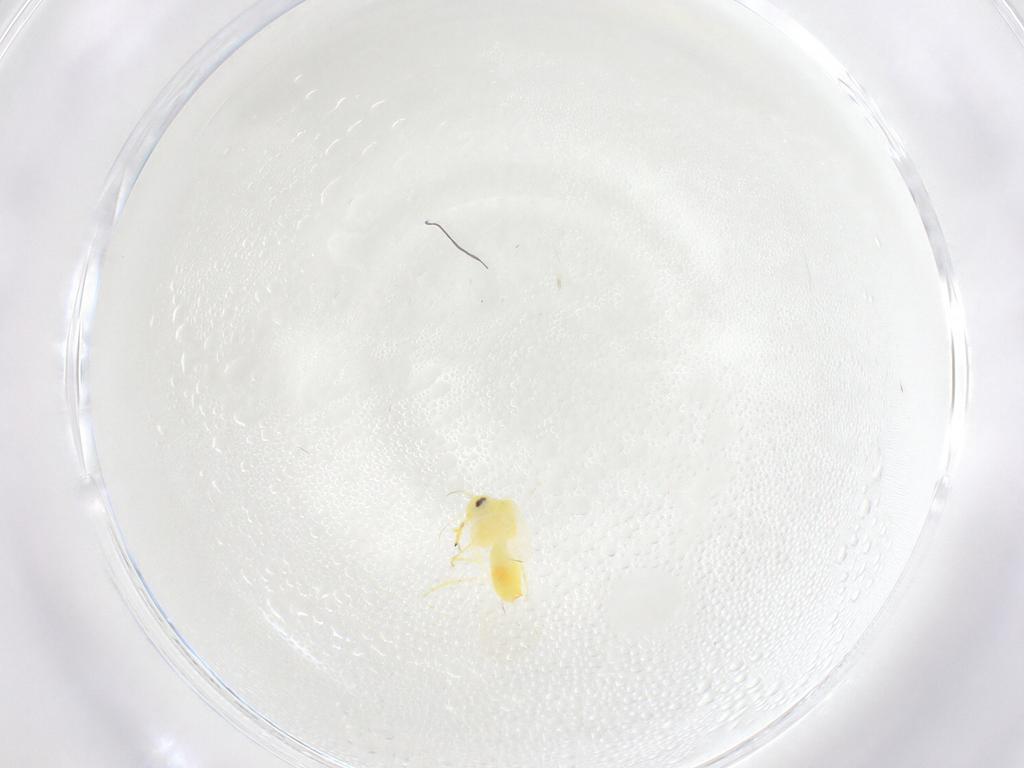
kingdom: Animalia
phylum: Arthropoda
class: Insecta
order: Hemiptera
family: Aleyrodidae
